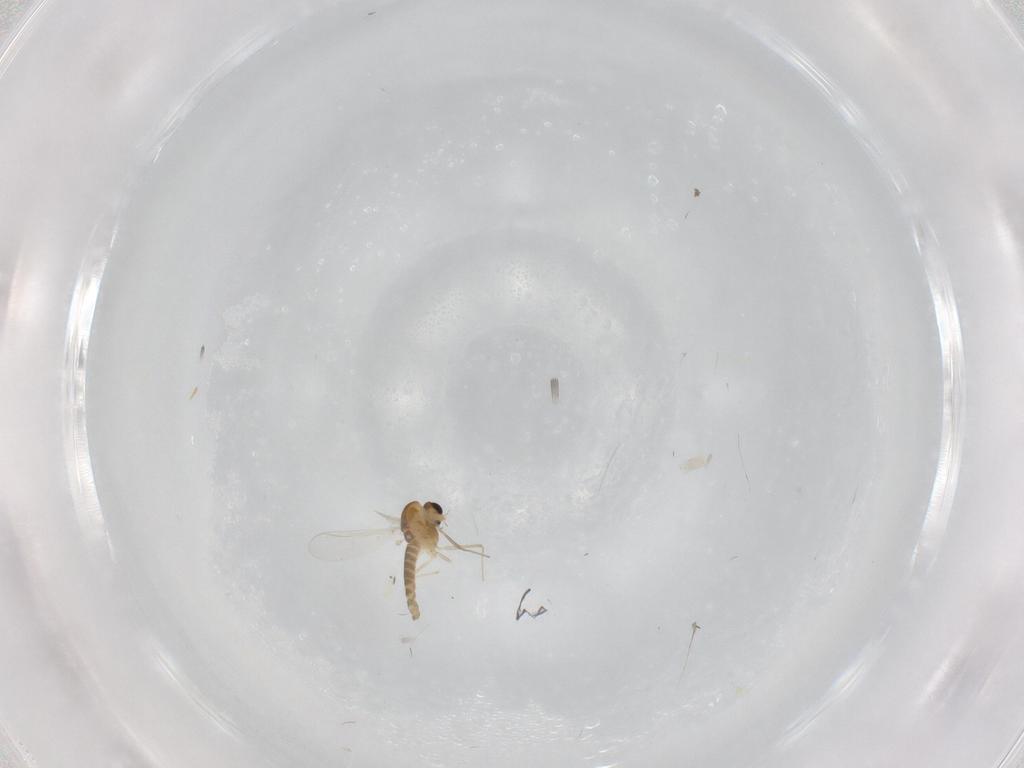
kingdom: Animalia
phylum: Arthropoda
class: Insecta
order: Diptera
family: Chironomidae
